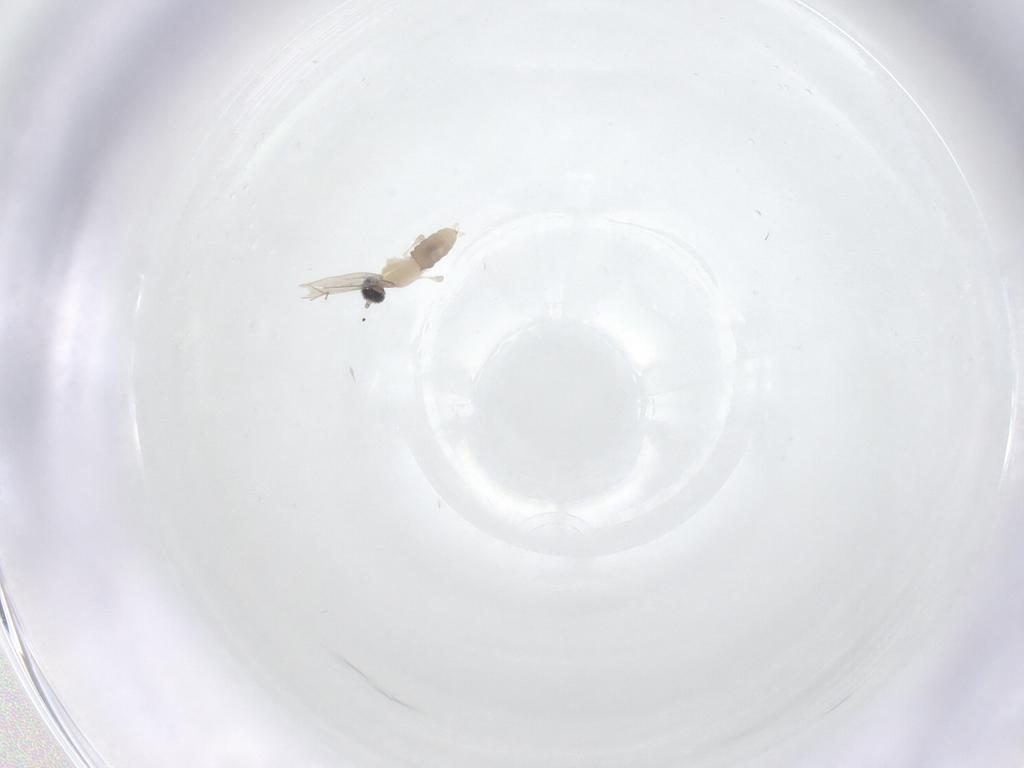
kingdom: Animalia
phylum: Arthropoda
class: Insecta
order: Diptera
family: Cecidomyiidae
